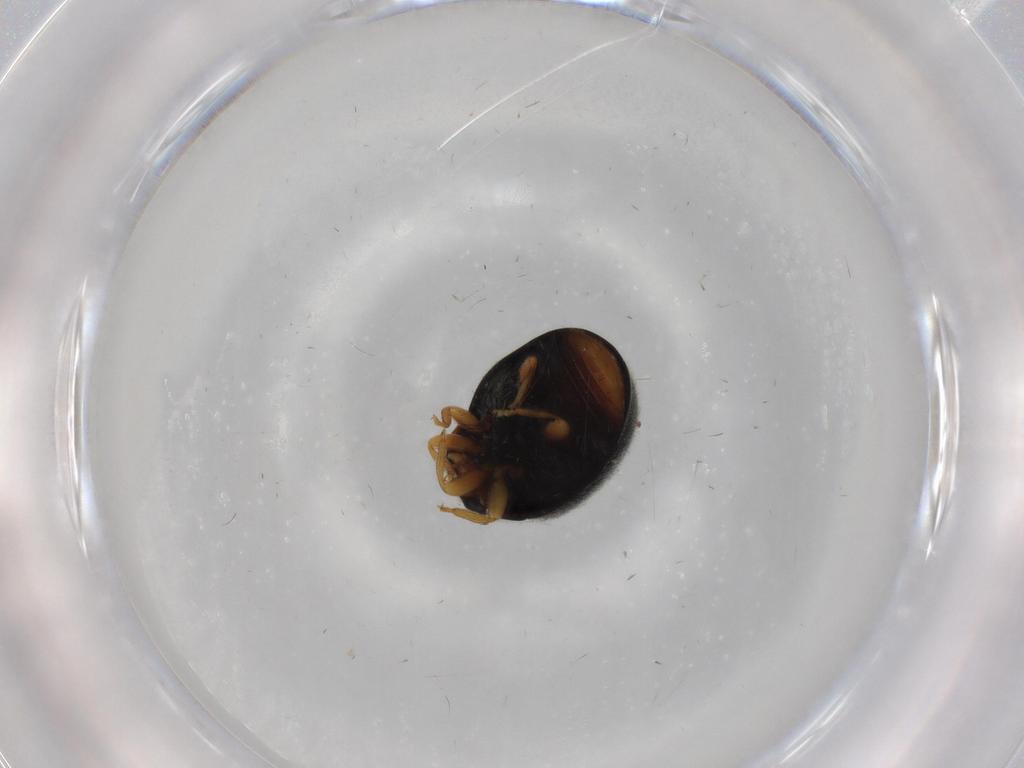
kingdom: Animalia
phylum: Arthropoda
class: Insecta
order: Coleoptera
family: Coccinellidae
